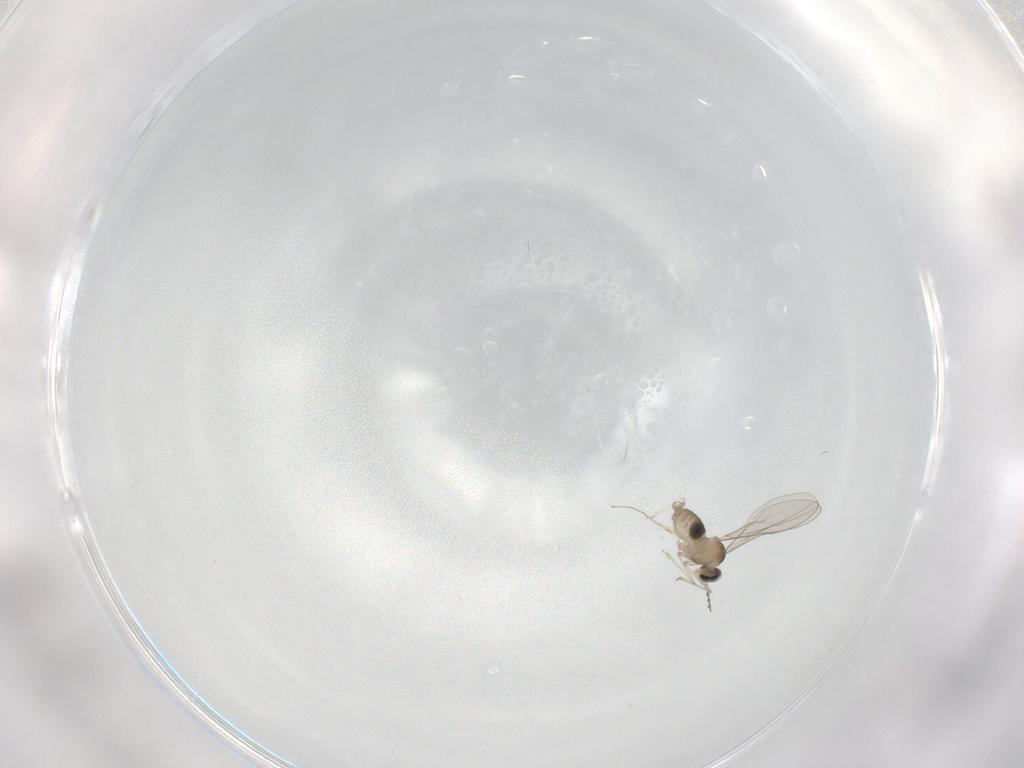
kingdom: Animalia
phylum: Arthropoda
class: Insecta
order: Diptera
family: Cecidomyiidae
